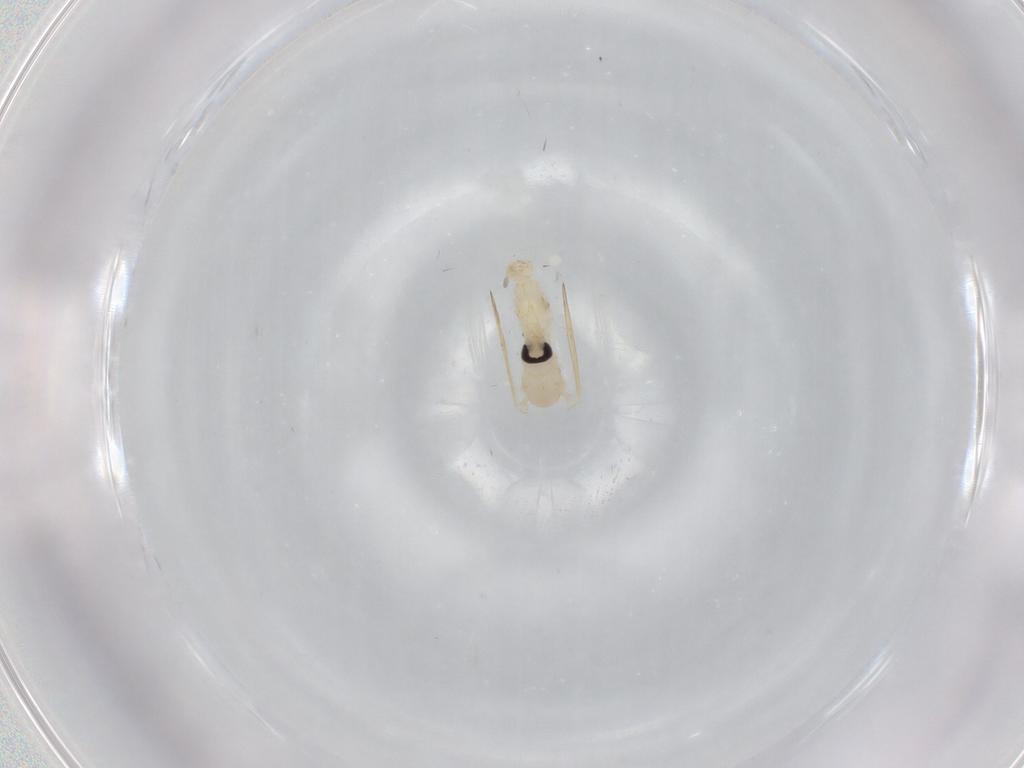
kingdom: Animalia
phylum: Arthropoda
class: Insecta
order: Diptera
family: Psychodidae
